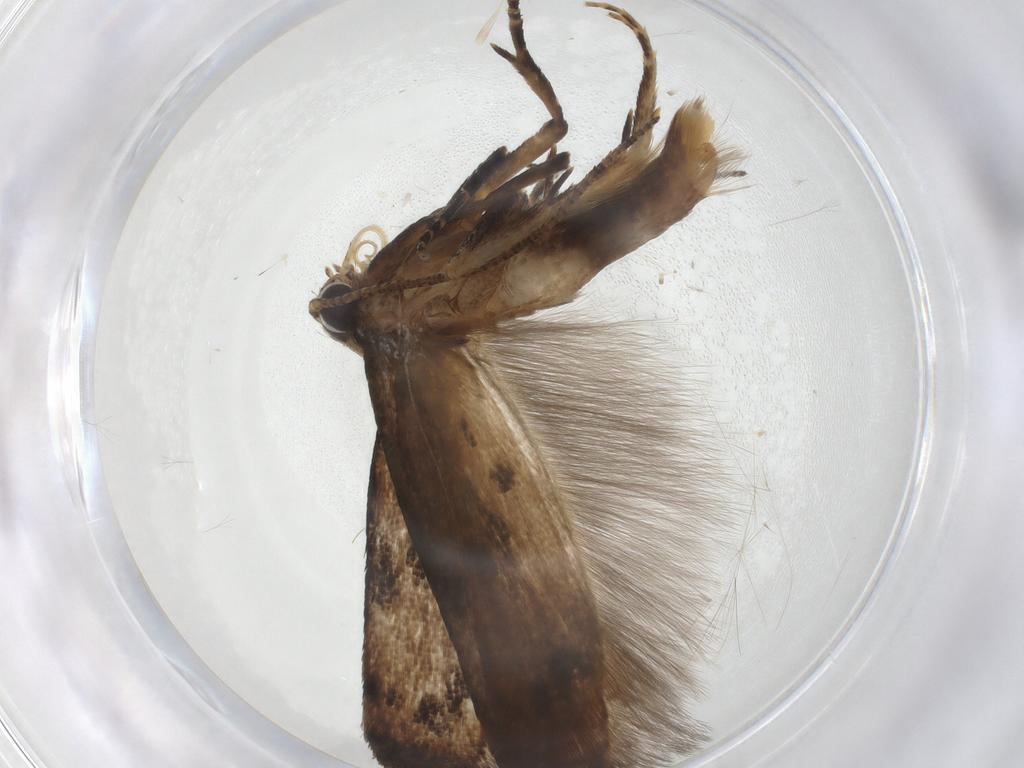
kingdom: Animalia
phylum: Arthropoda
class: Insecta
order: Lepidoptera
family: Gelechiidae
